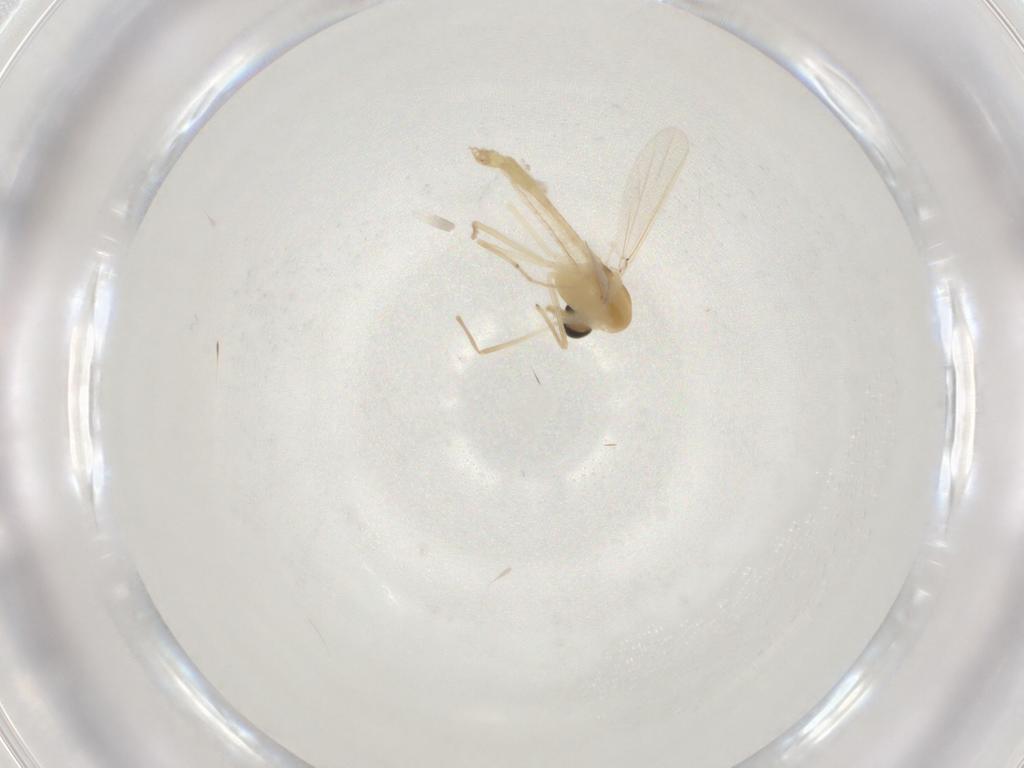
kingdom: Animalia
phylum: Arthropoda
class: Insecta
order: Diptera
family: Chironomidae
